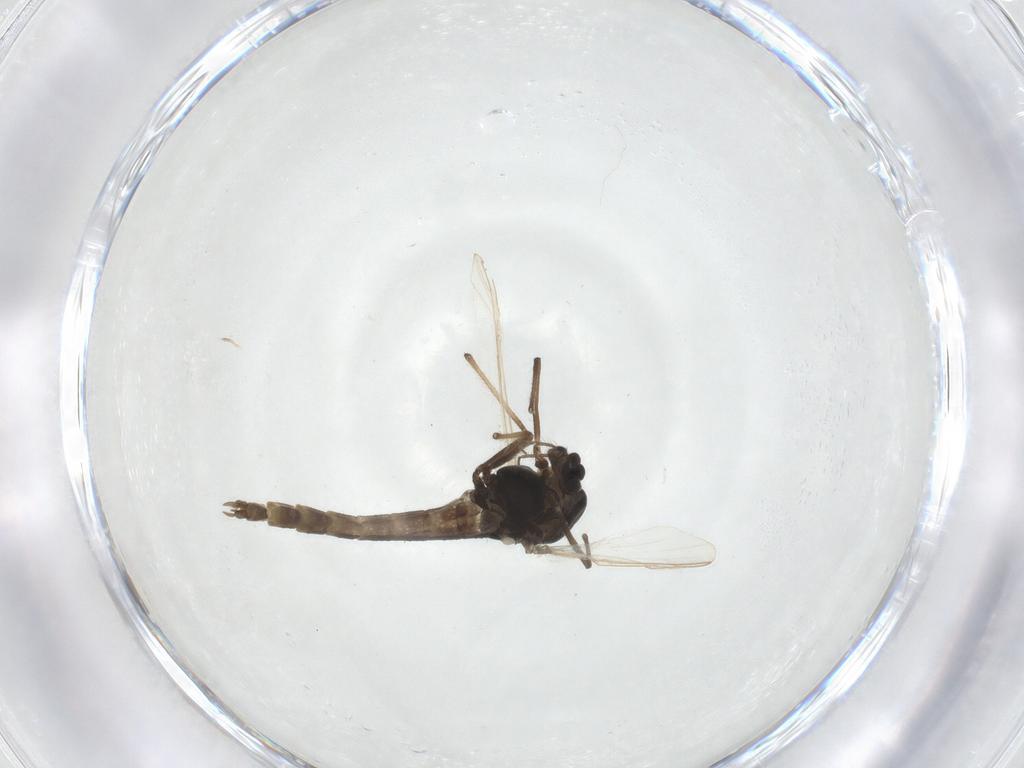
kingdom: Animalia
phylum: Arthropoda
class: Insecta
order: Diptera
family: Chironomidae
